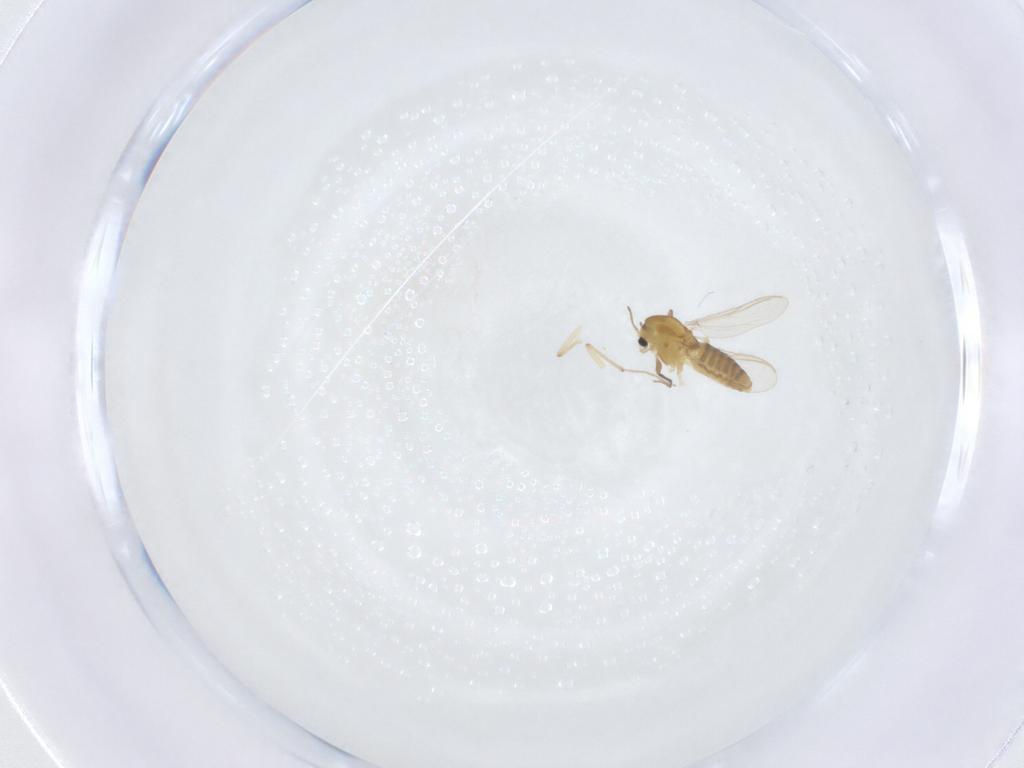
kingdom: Animalia
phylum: Arthropoda
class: Insecta
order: Diptera
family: Chironomidae
